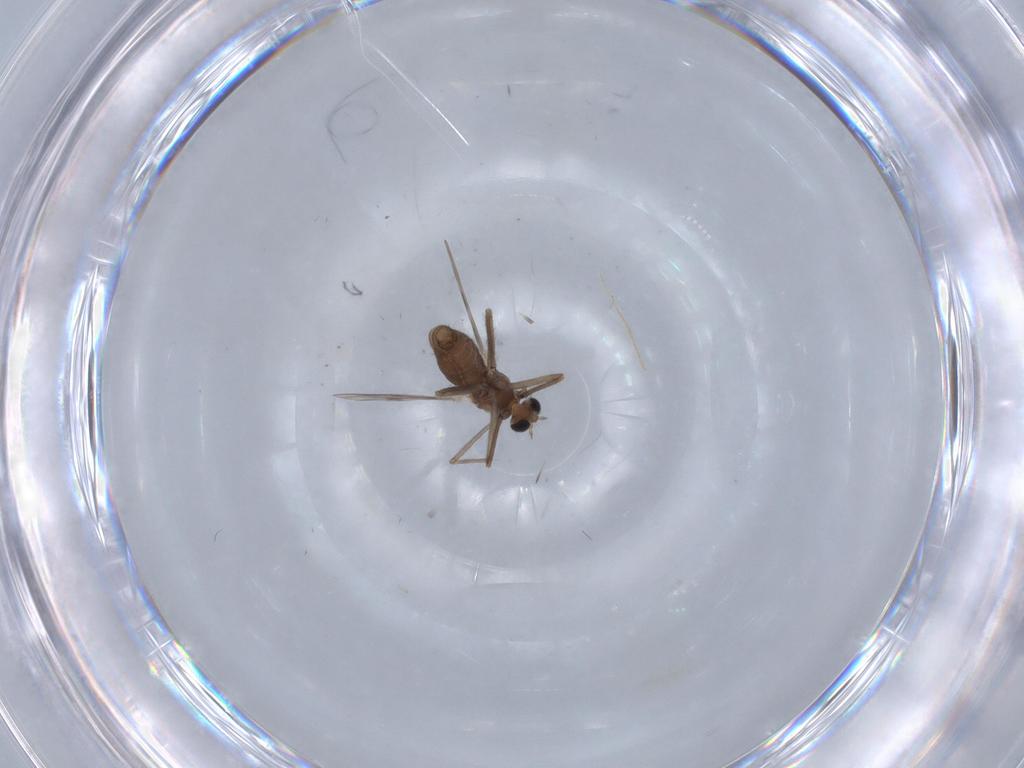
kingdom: Animalia
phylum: Arthropoda
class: Insecta
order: Diptera
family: Chironomidae
